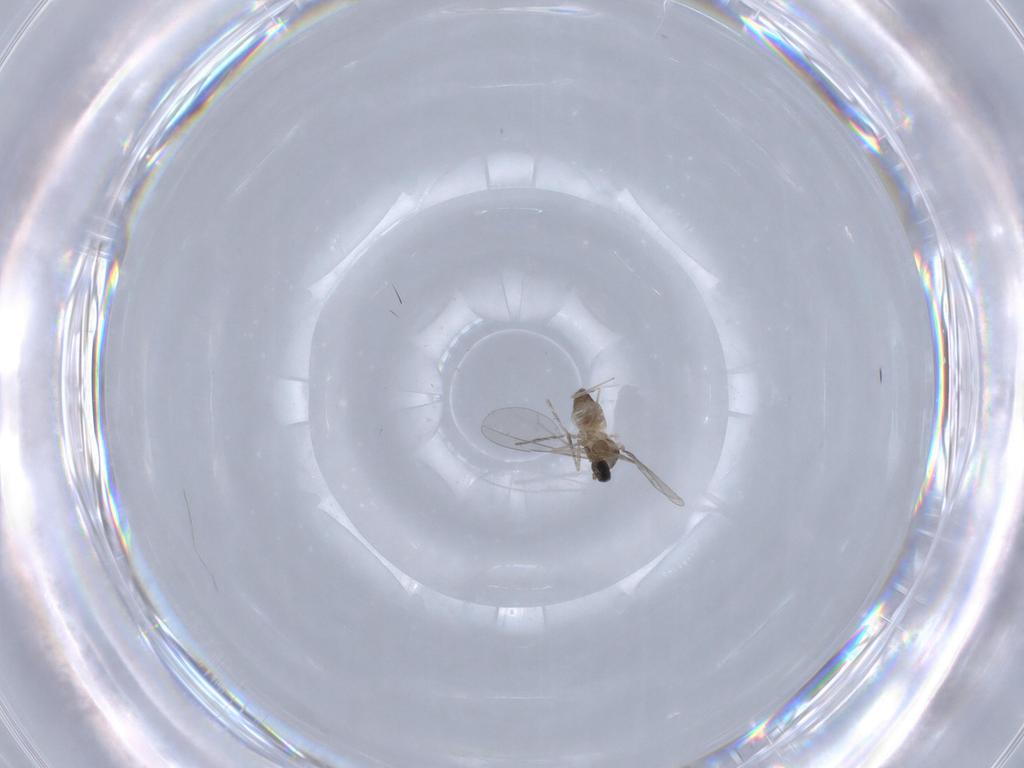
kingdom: Animalia
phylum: Arthropoda
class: Insecta
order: Diptera
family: Cecidomyiidae
